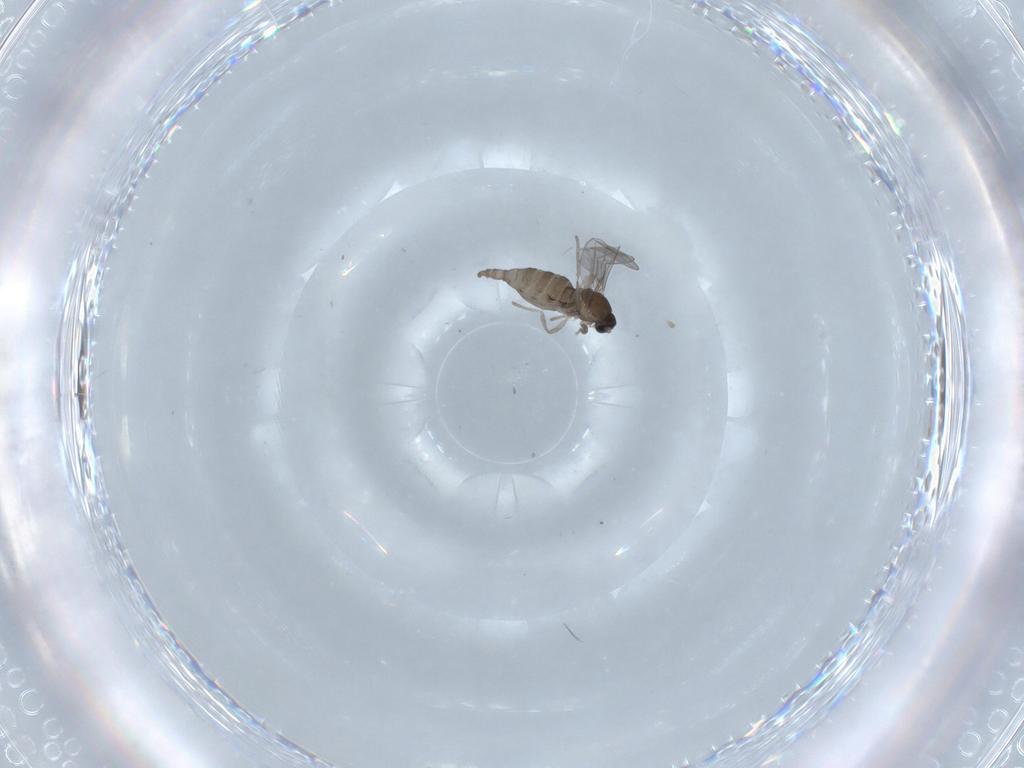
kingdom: Animalia
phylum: Arthropoda
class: Insecta
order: Diptera
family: Cecidomyiidae
